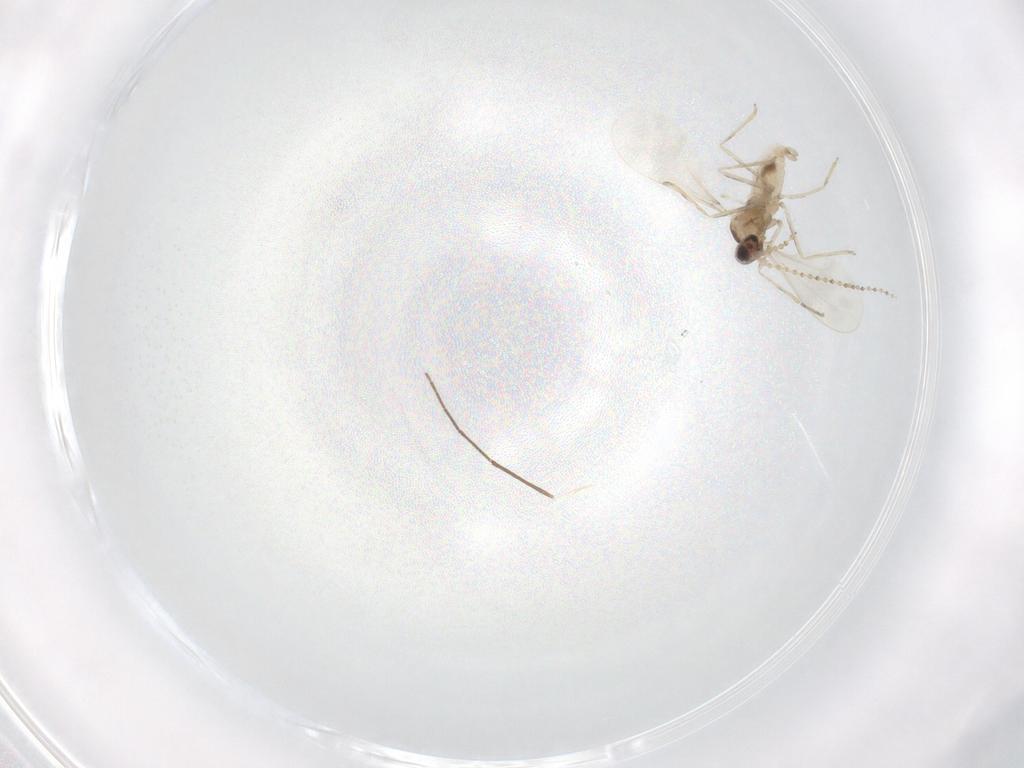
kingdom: Animalia
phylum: Arthropoda
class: Insecta
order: Diptera
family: Cecidomyiidae
